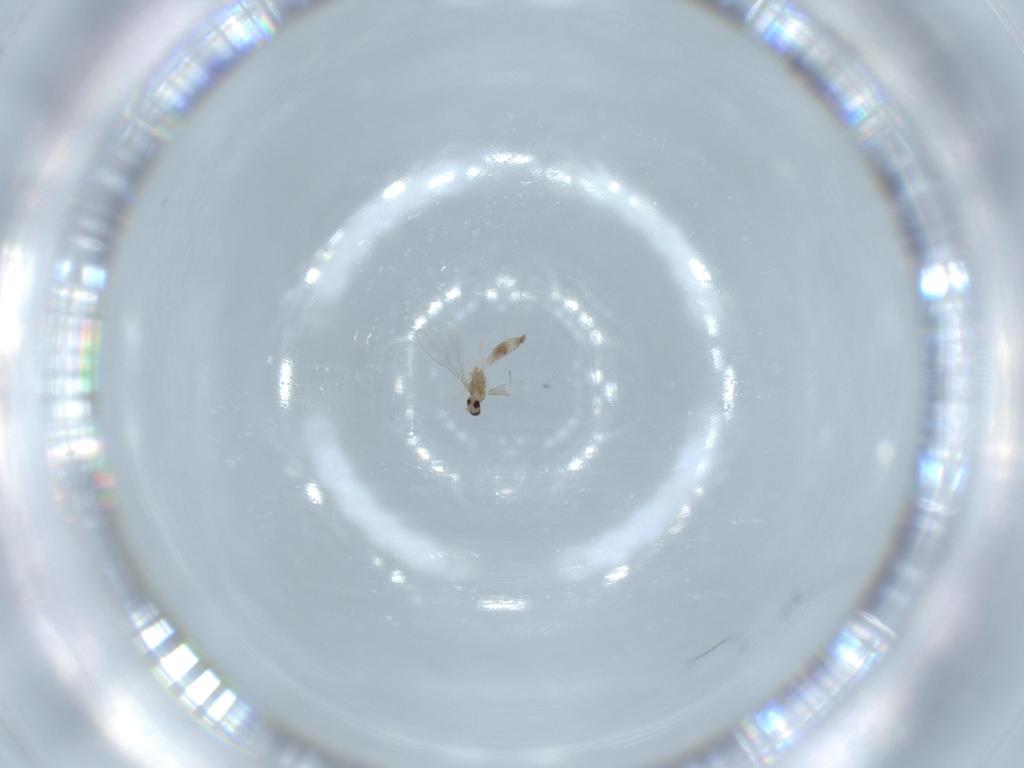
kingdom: Animalia
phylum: Arthropoda
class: Insecta
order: Diptera
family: Cecidomyiidae
